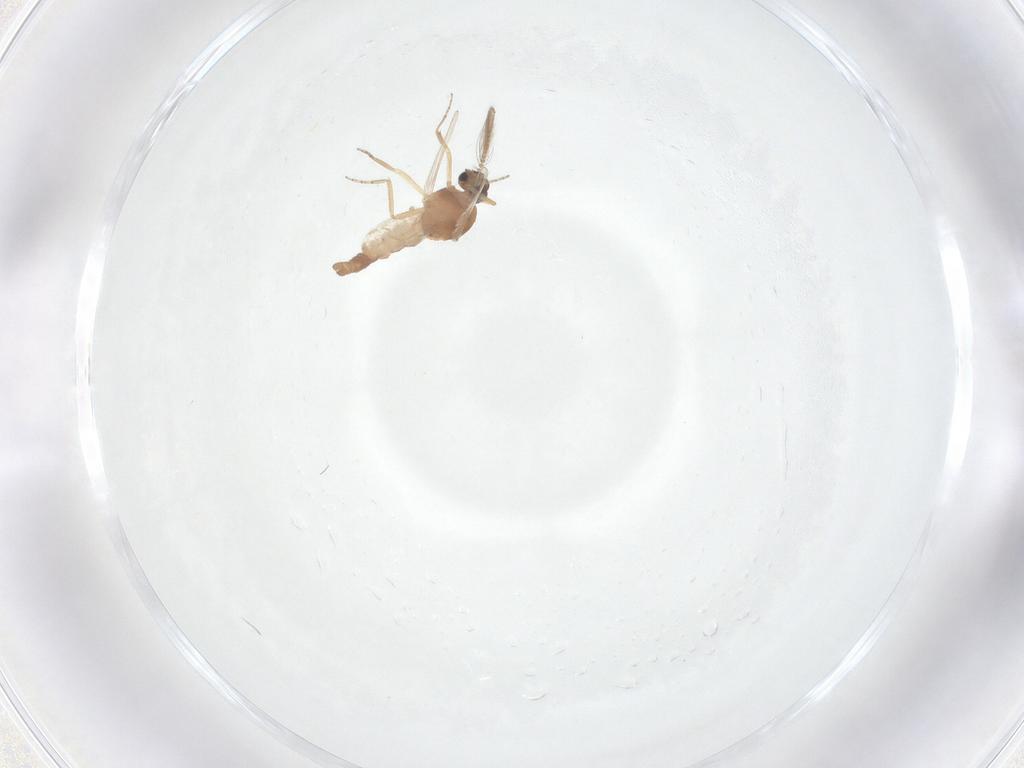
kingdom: Animalia
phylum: Arthropoda
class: Insecta
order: Diptera
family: Ceratopogonidae
